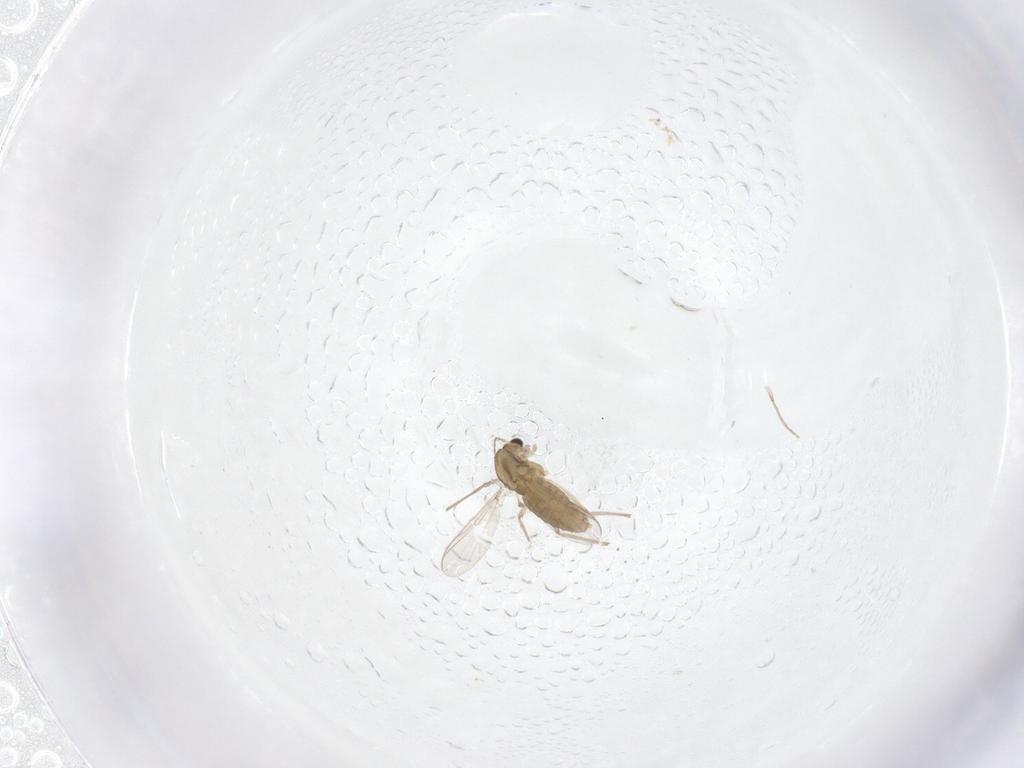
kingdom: Animalia
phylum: Arthropoda
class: Insecta
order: Diptera
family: Chironomidae
